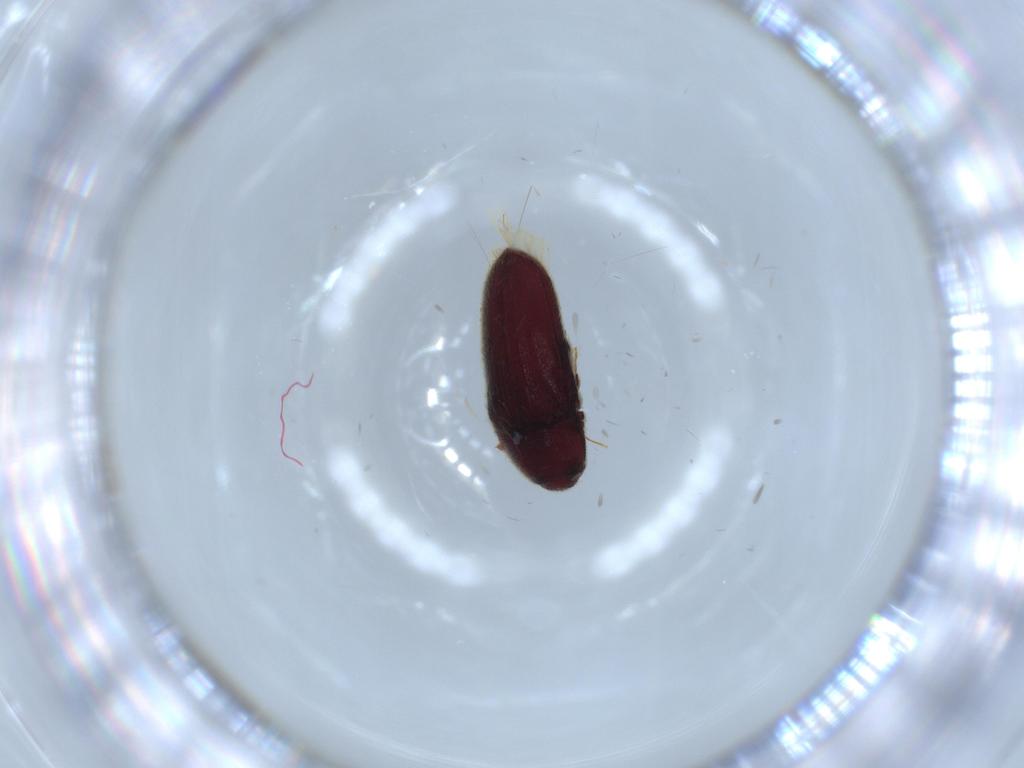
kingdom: Animalia
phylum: Arthropoda
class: Insecta
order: Coleoptera
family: Throscidae
